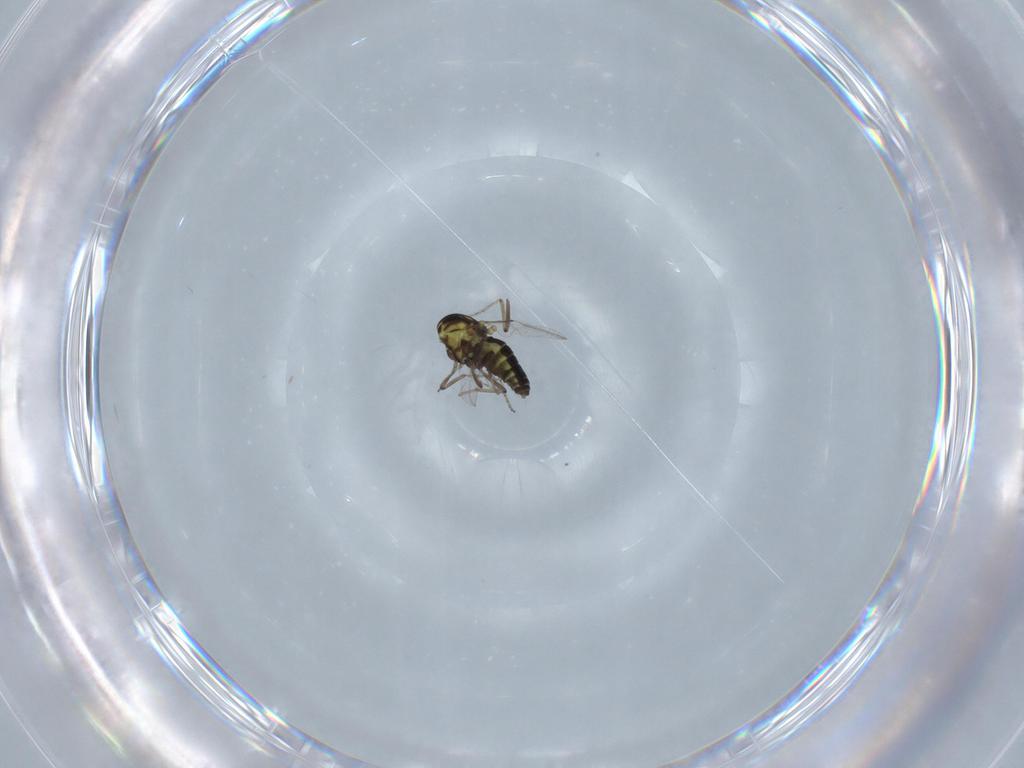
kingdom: Animalia
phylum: Arthropoda
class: Insecta
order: Diptera
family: Ceratopogonidae
